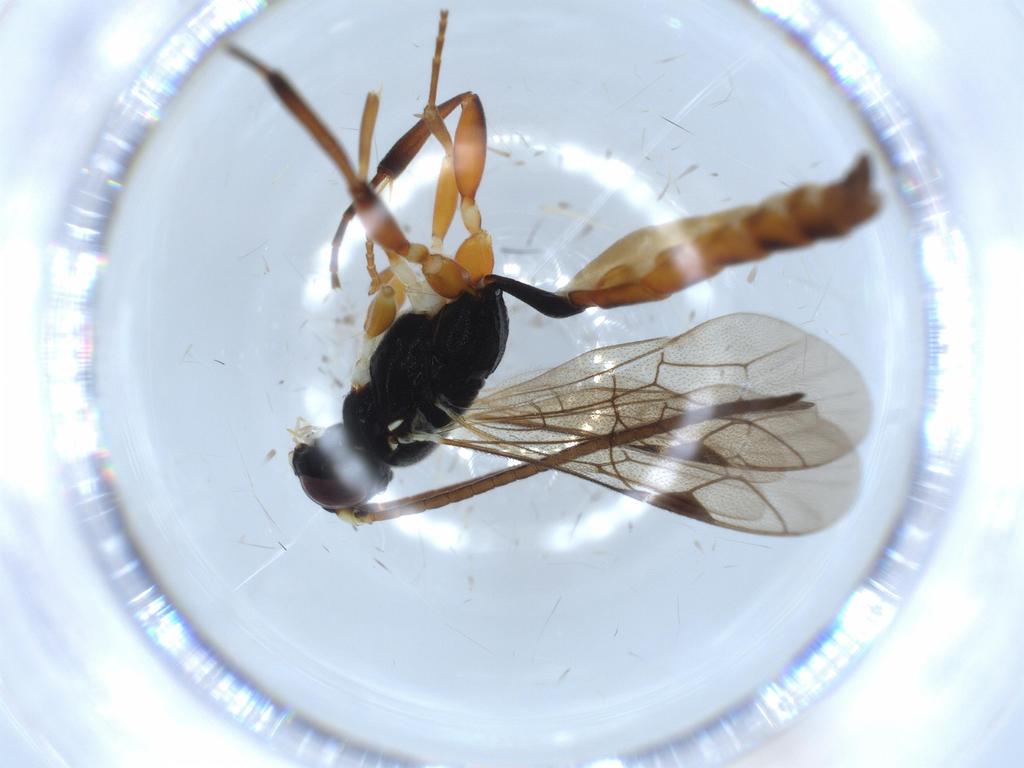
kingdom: Animalia
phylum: Arthropoda
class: Insecta
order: Hymenoptera
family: Ichneumonidae
